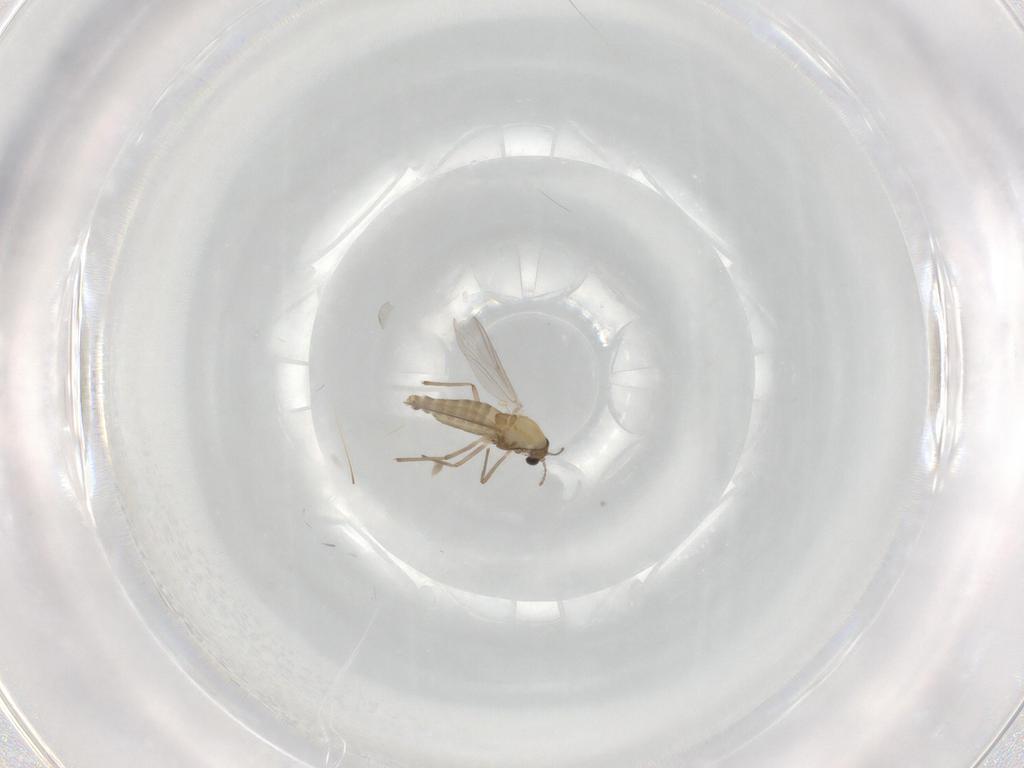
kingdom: Animalia
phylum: Arthropoda
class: Insecta
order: Diptera
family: Chironomidae
